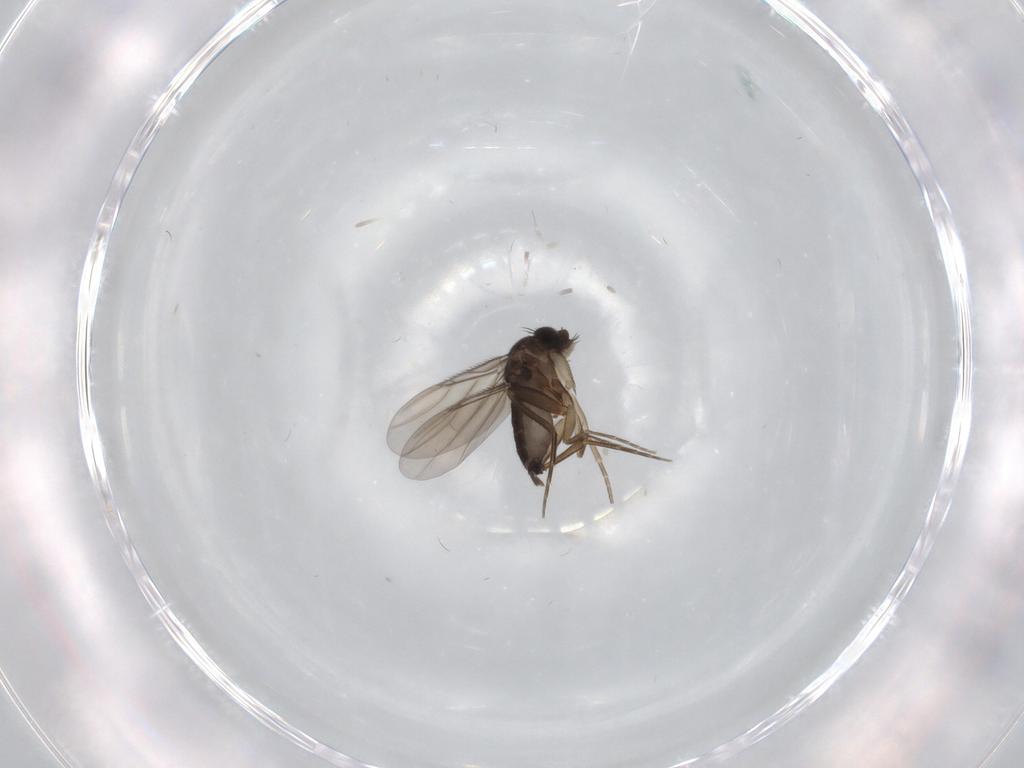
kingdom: Animalia
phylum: Arthropoda
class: Insecta
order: Diptera
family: Phoridae
